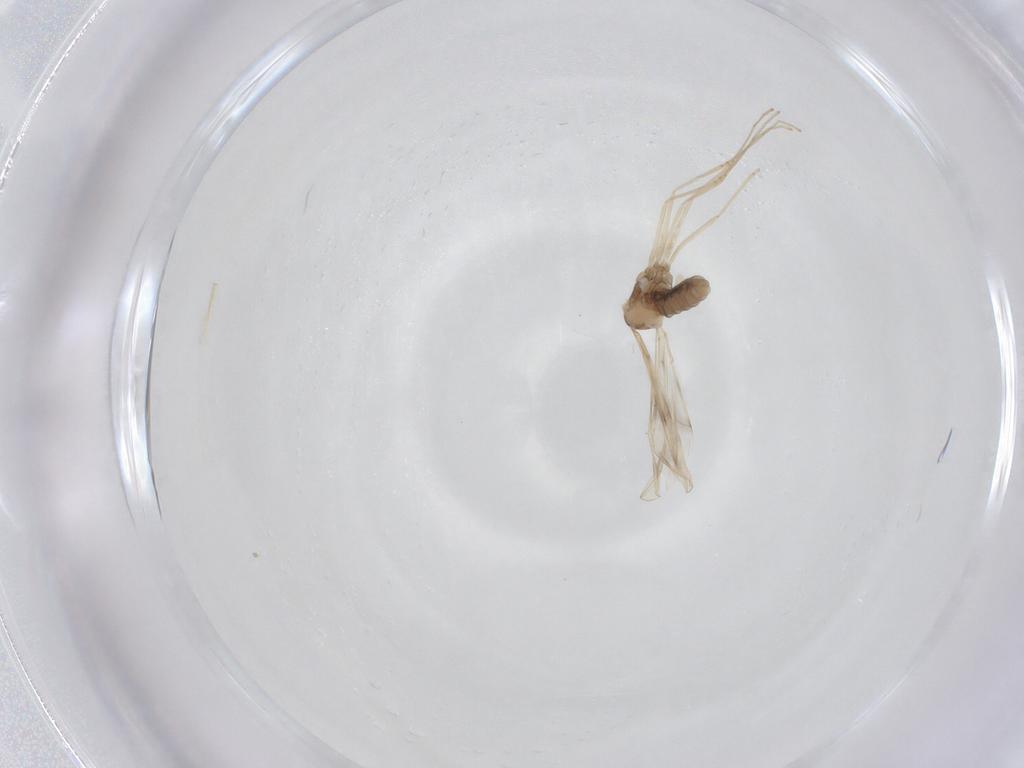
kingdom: Animalia
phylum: Arthropoda
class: Insecta
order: Diptera
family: Cecidomyiidae
